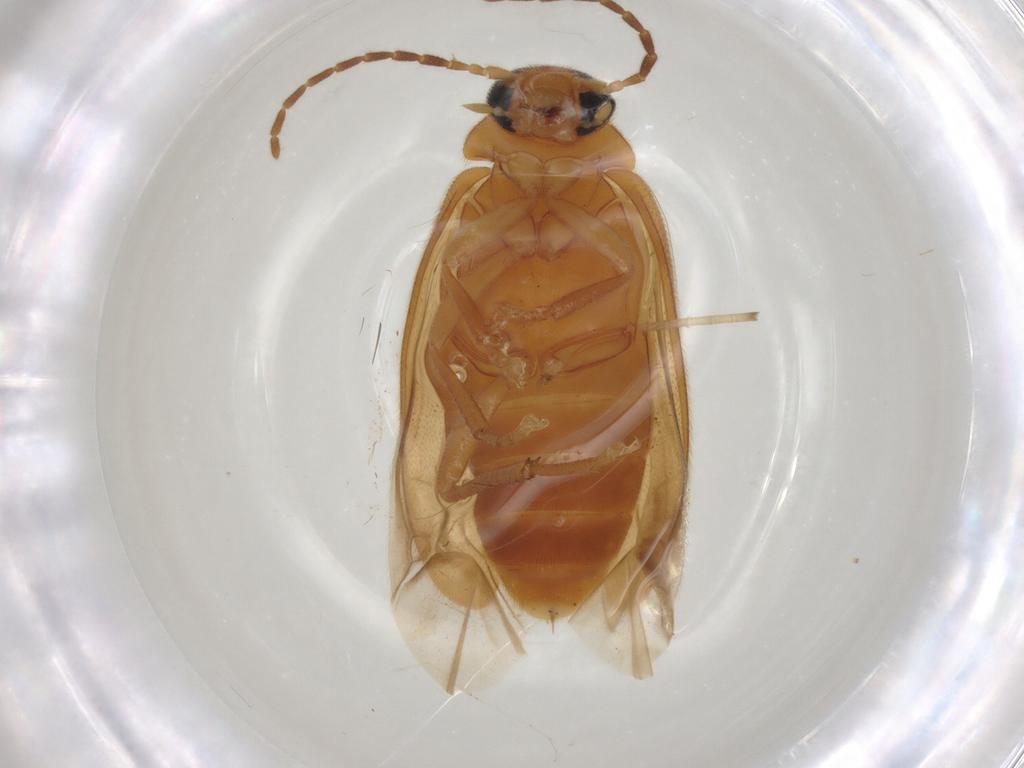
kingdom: Animalia
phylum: Arthropoda
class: Insecta
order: Coleoptera
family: Scraptiidae
